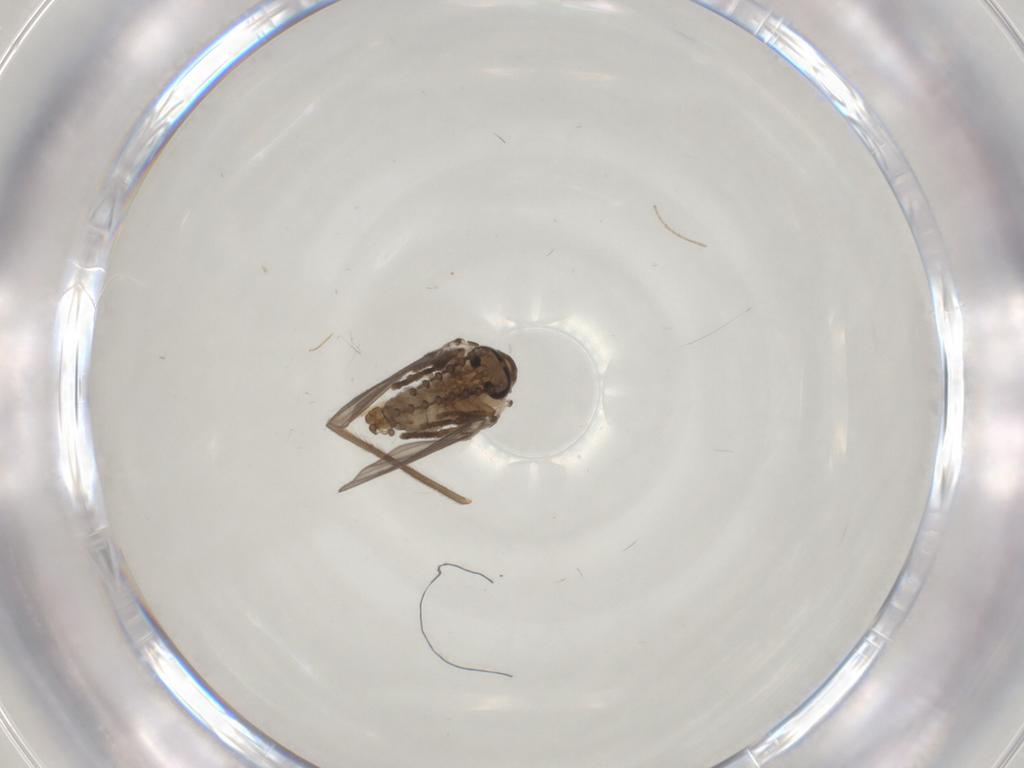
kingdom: Animalia
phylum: Arthropoda
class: Insecta
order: Diptera
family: Psychodidae
